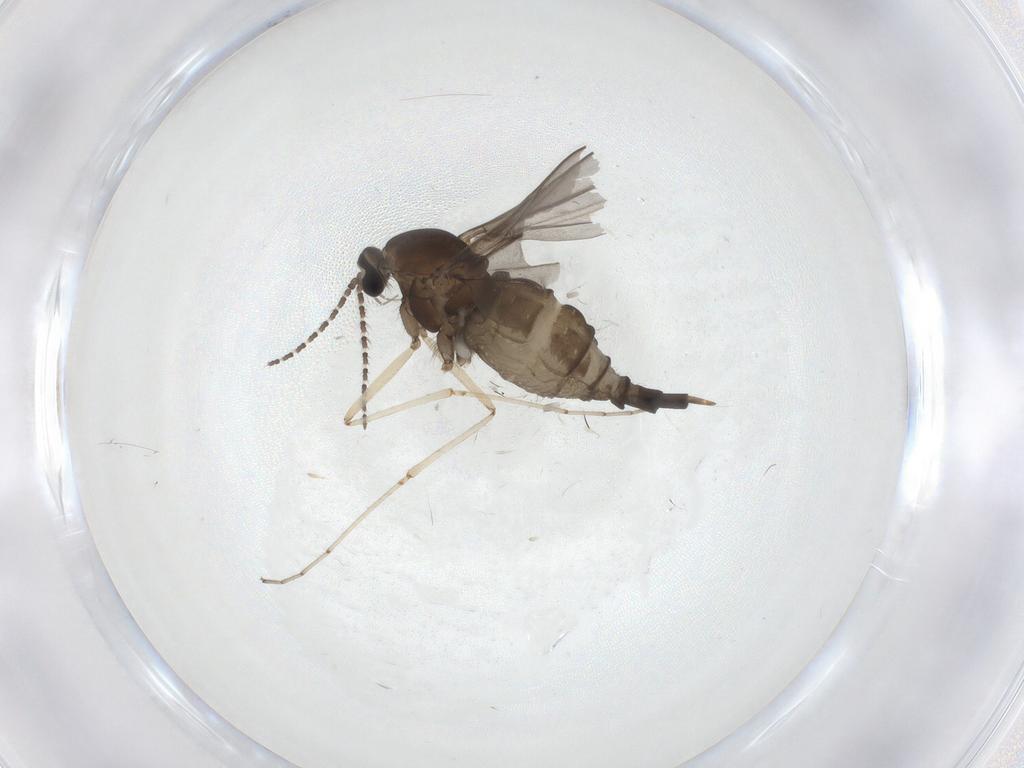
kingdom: Animalia
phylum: Arthropoda
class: Insecta
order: Diptera
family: Cecidomyiidae
